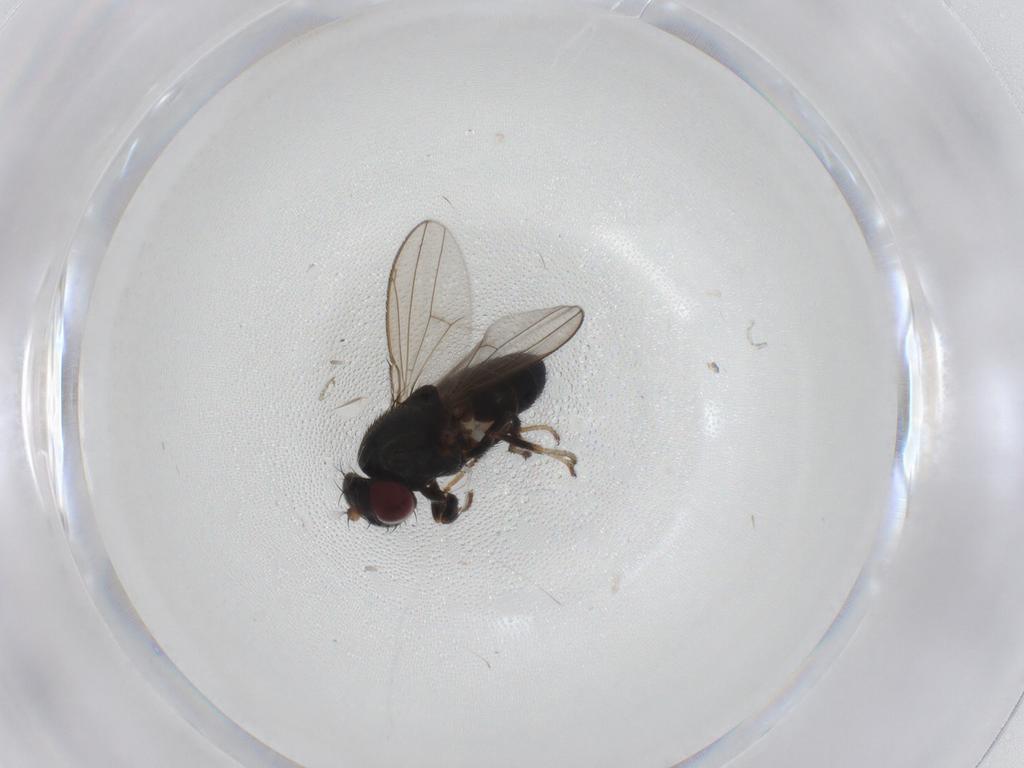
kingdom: Animalia
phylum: Arthropoda
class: Insecta
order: Diptera
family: Ephydridae
